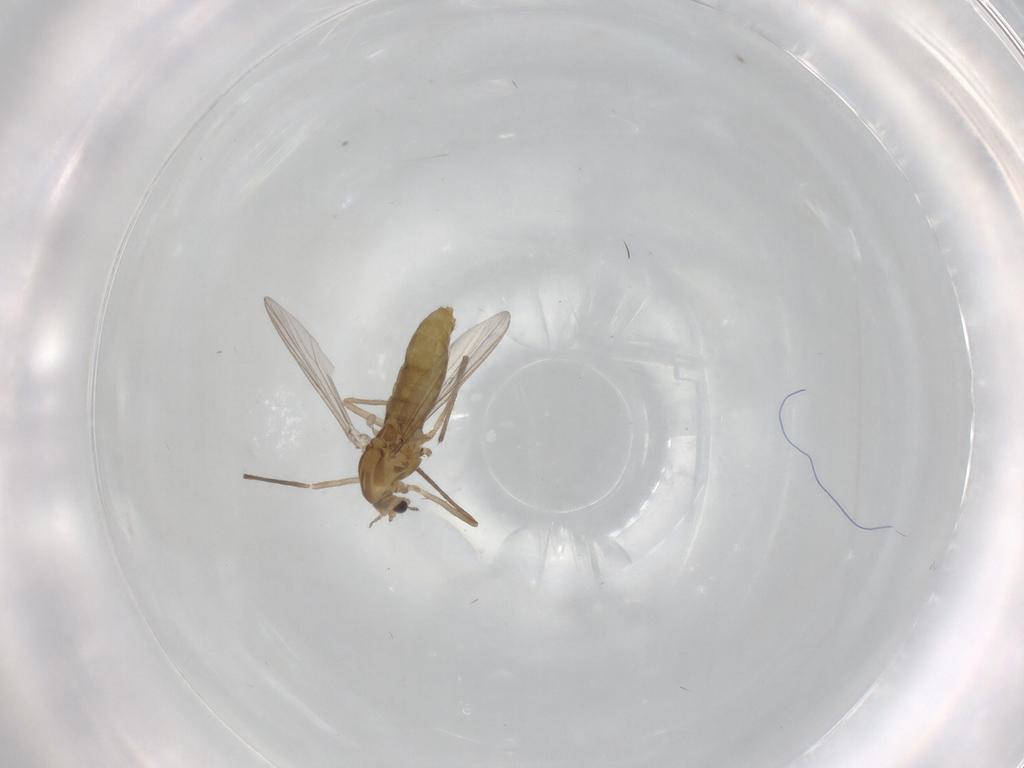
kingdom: Animalia
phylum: Arthropoda
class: Insecta
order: Diptera
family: Chironomidae
